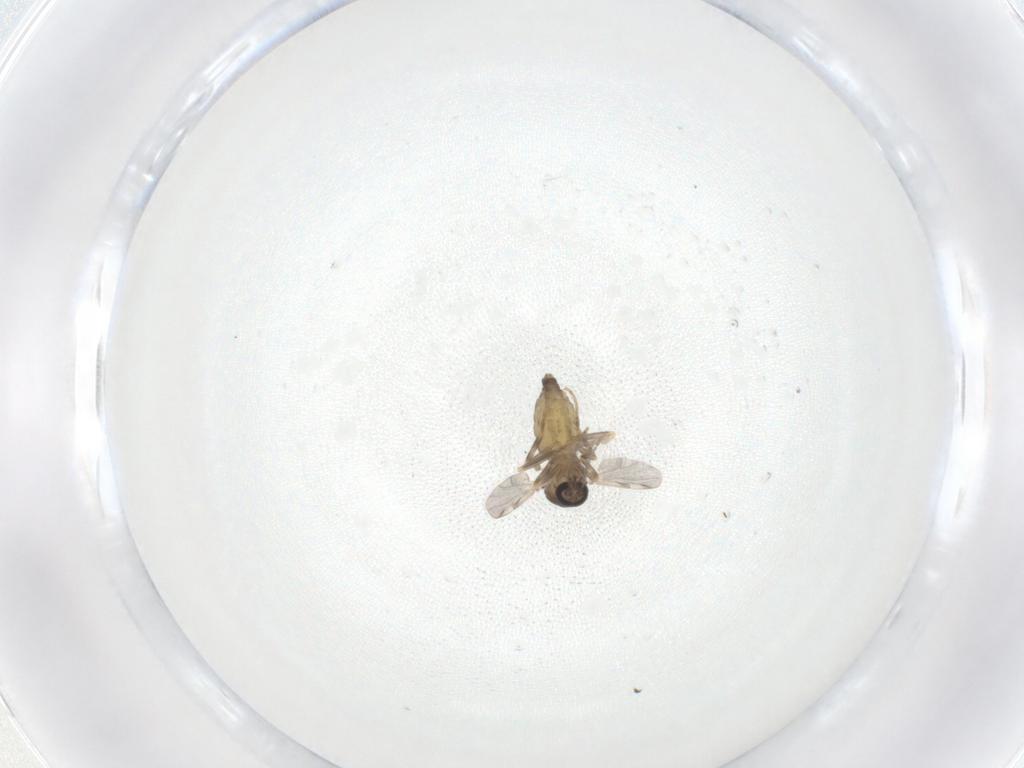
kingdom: Animalia
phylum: Arthropoda
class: Insecta
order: Diptera
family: Ceratopogonidae
